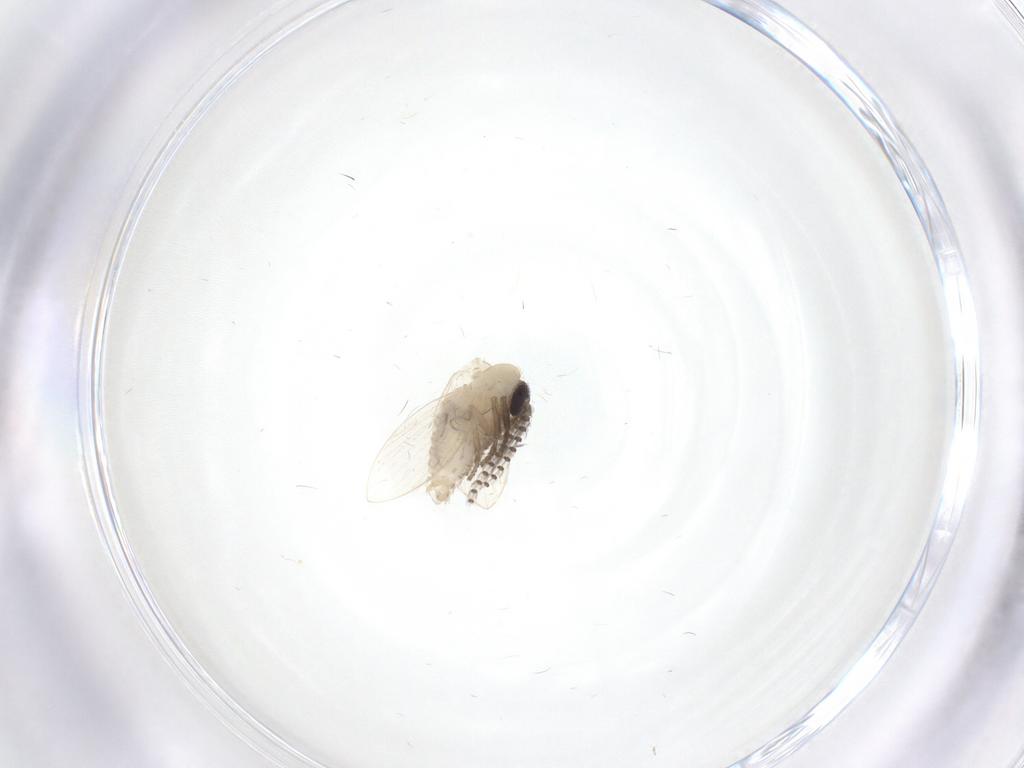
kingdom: Animalia
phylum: Arthropoda
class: Insecta
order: Diptera
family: Psychodidae
